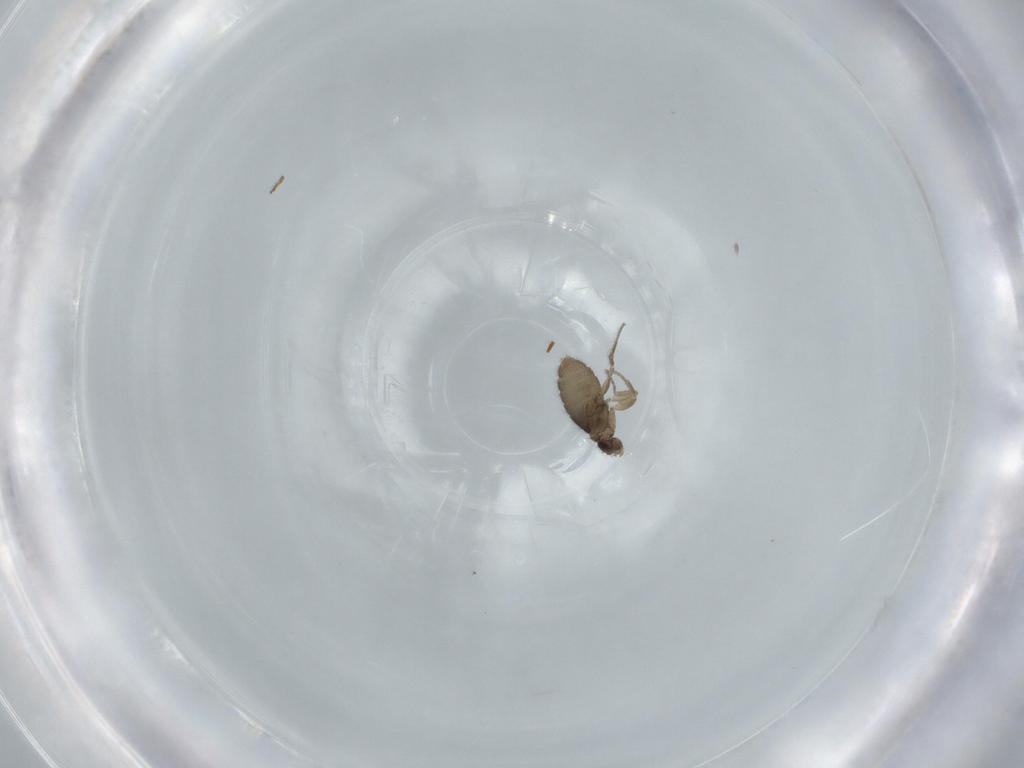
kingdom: Animalia
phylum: Arthropoda
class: Insecta
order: Diptera
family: Phoridae
